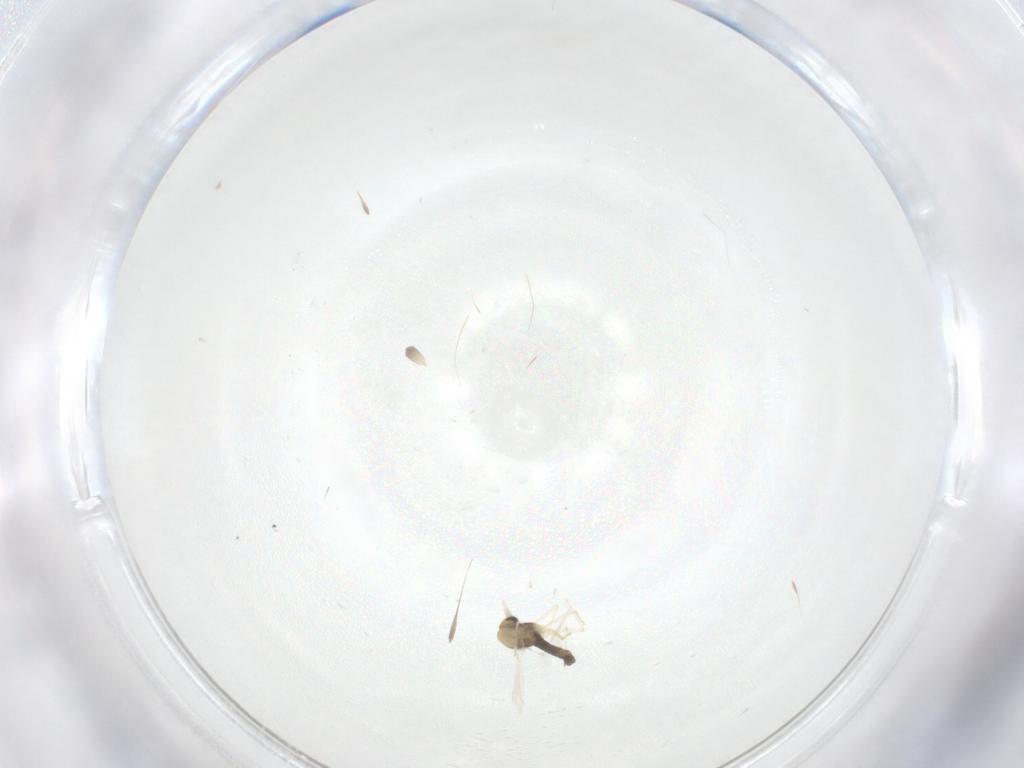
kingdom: Animalia
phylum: Arthropoda
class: Insecta
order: Diptera
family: Chironomidae
